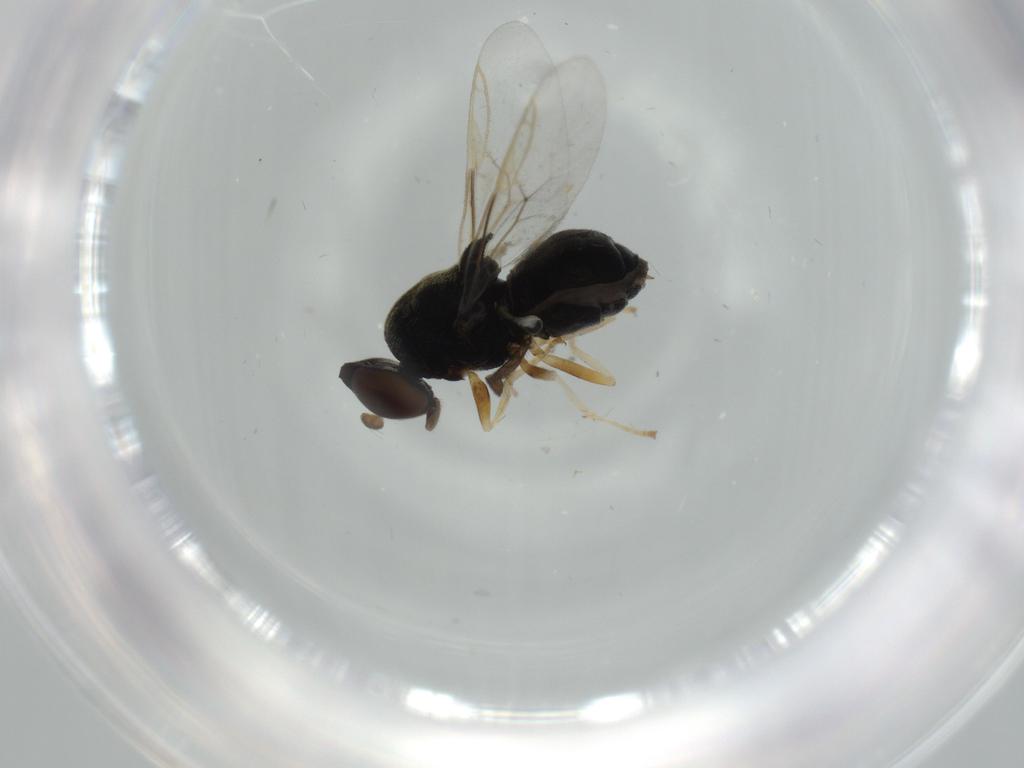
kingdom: Animalia
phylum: Arthropoda
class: Insecta
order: Diptera
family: Stratiomyidae
